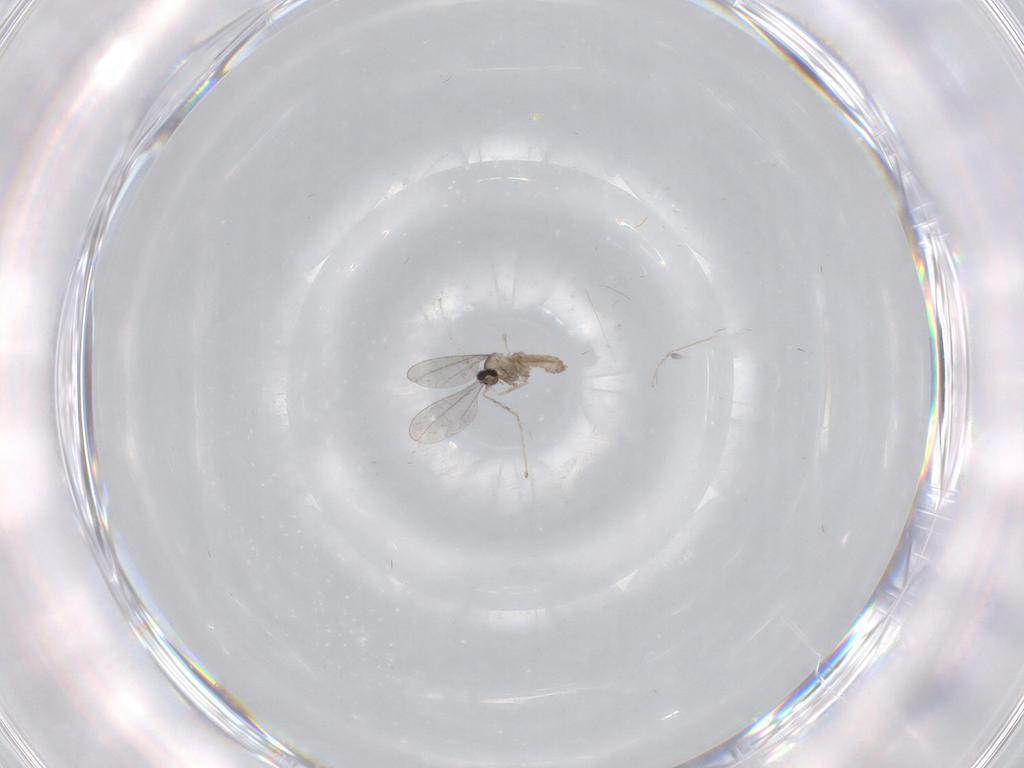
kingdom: Animalia
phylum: Arthropoda
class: Insecta
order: Diptera
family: Cecidomyiidae
